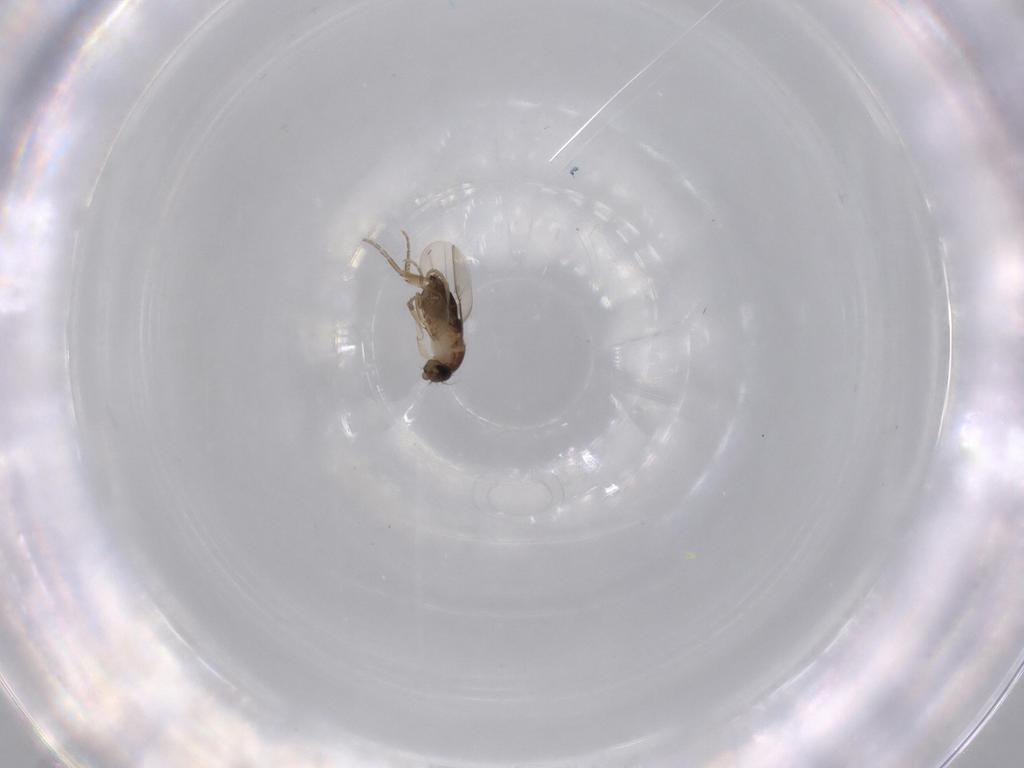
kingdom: Animalia
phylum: Arthropoda
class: Insecta
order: Diptera
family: Phoridae
